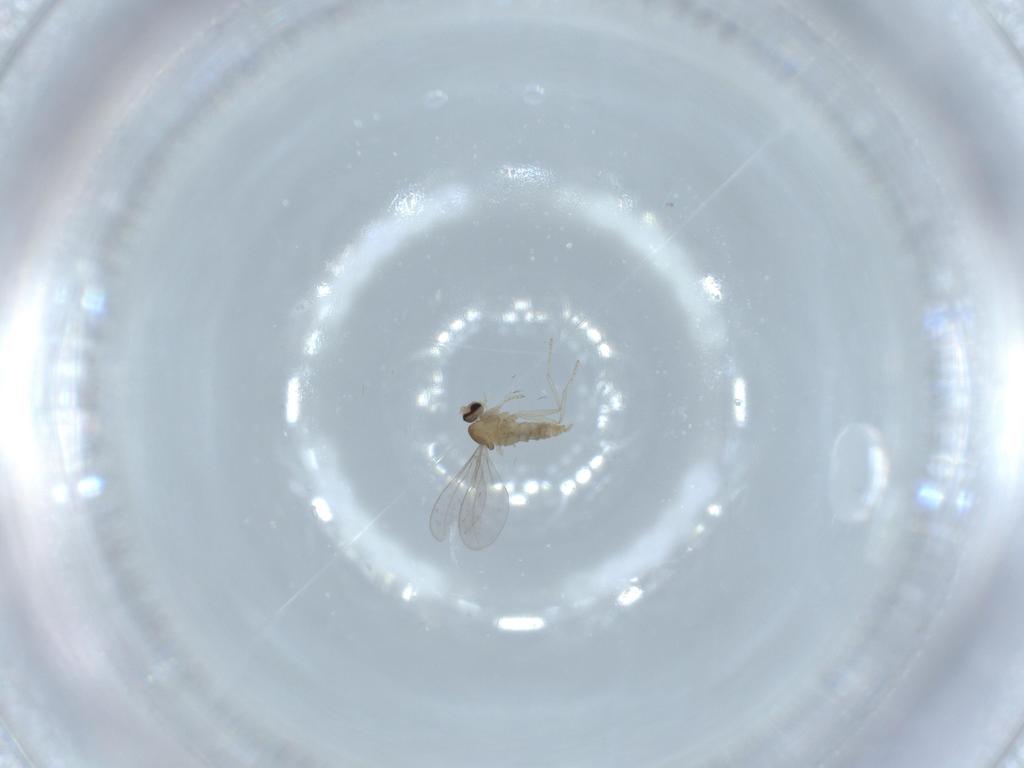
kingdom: Animalia
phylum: Arthropoda
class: Insecta
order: Diptera
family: Cecidomyiidae
